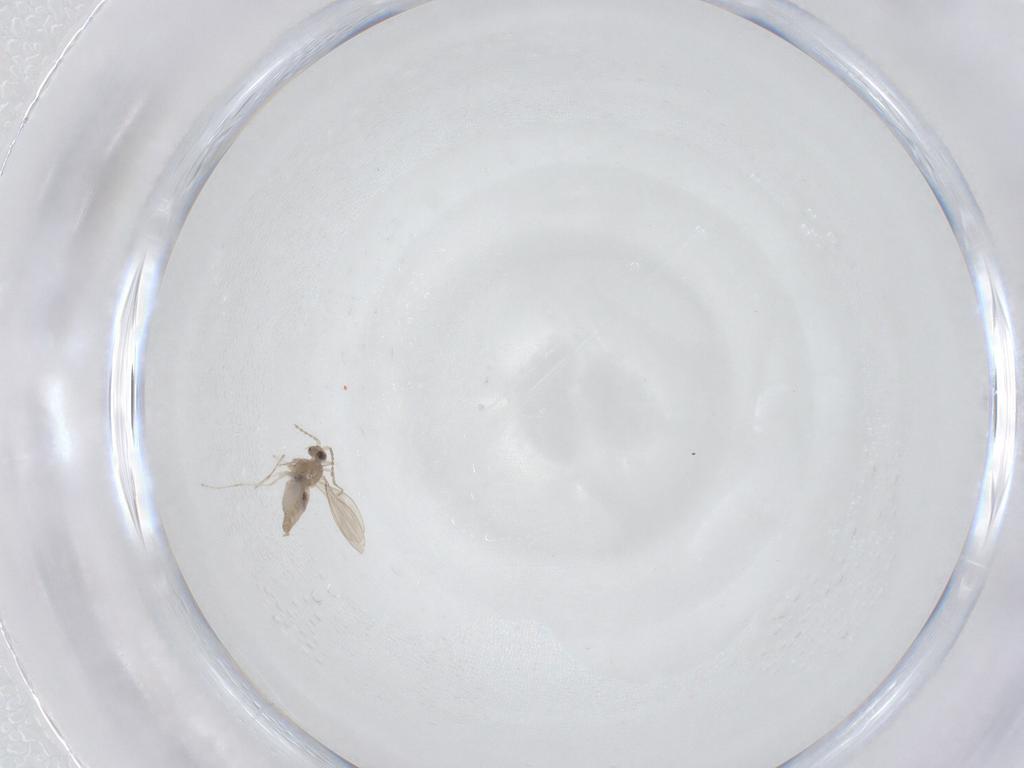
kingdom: Animalia
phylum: Arthropoda
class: Insecta
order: Diptera
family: Cecidomyiidae
